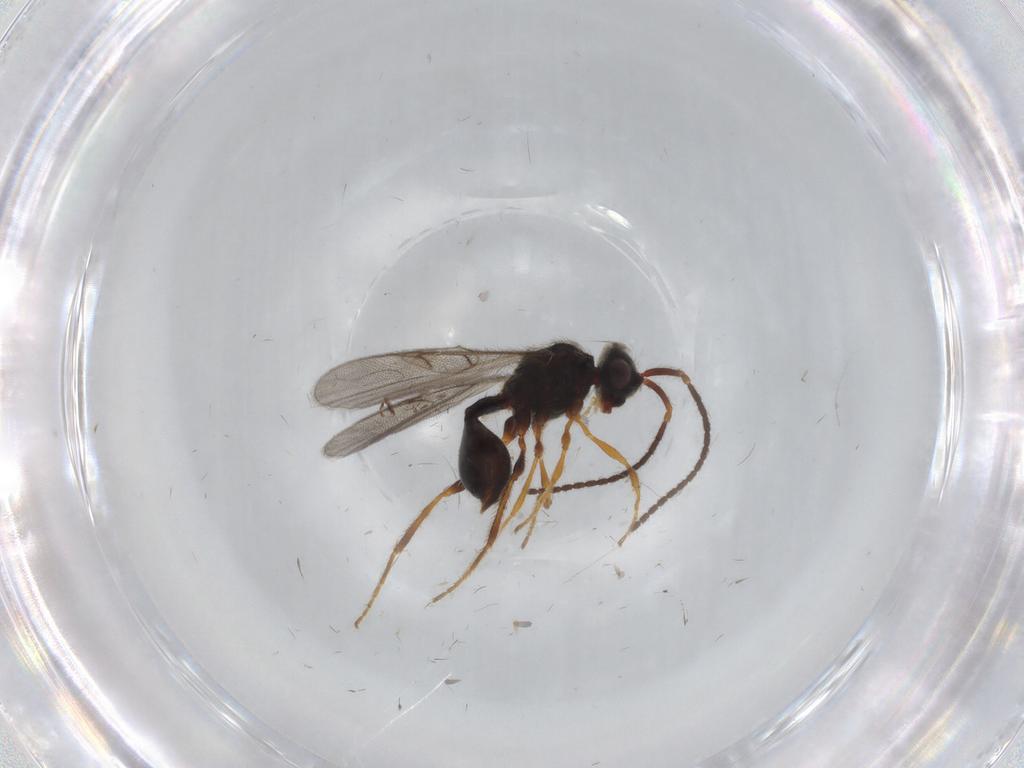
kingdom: Animalia
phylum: Arthropoda
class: Insecta
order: Hymenoptera
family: Diapriidae
